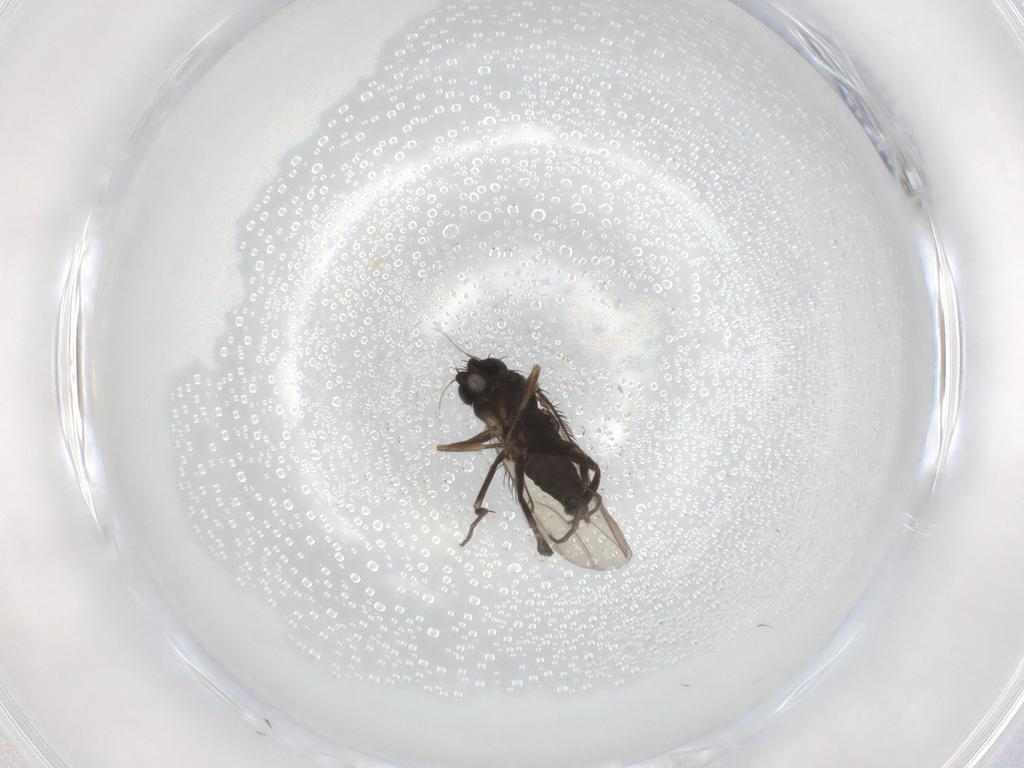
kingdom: Animalia
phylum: Arthropoda
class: Insecta
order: Diptera
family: Phoridae
